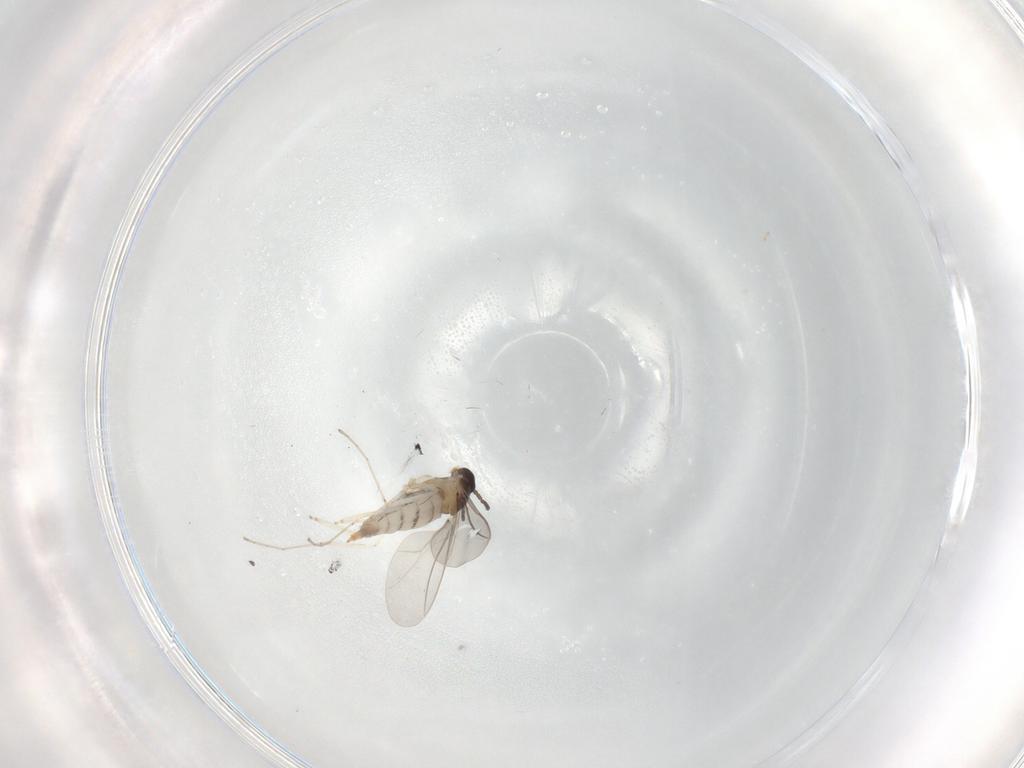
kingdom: Animalia
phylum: Arthropoda
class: Insecta
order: Diptera
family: Cecidomyiidae
